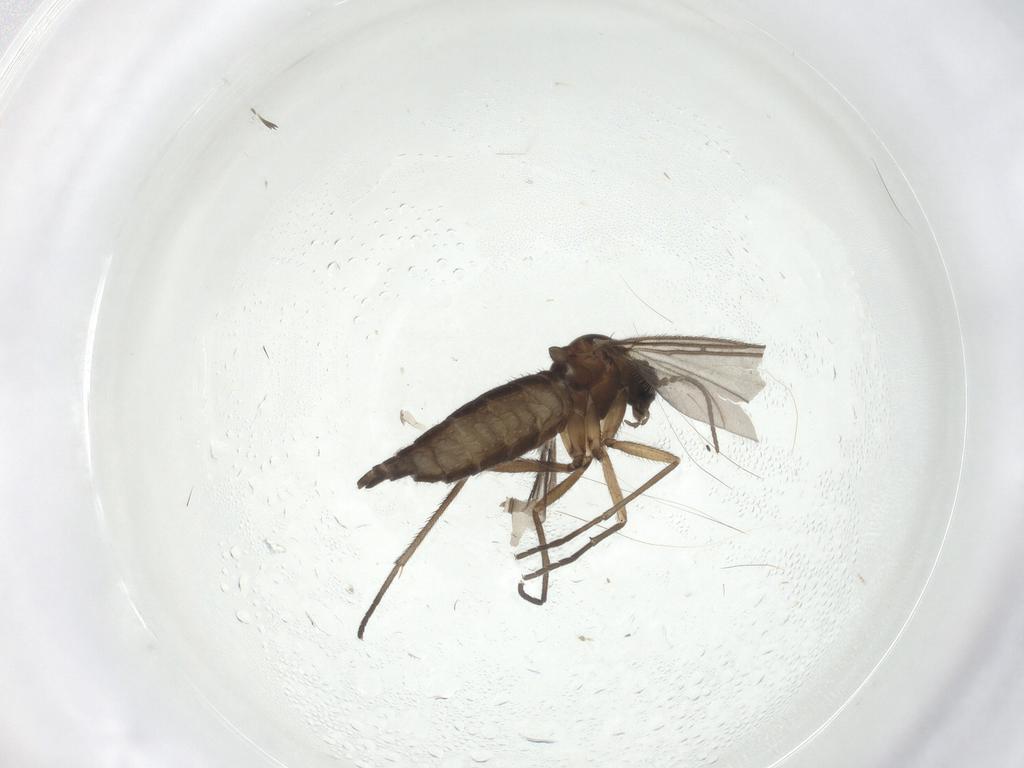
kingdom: Animalia
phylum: Arthropoda
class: Insecta
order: Diptera
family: Sciaridae
